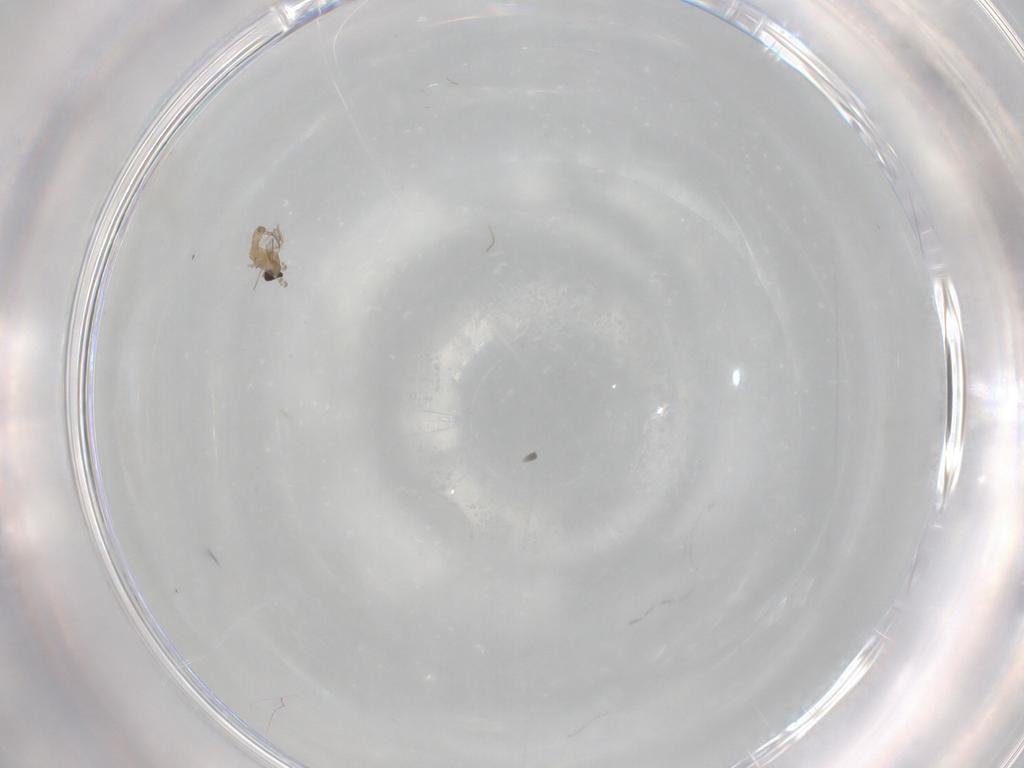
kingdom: Animalia
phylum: Arthropoda
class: Insecta
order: Diptera
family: Cecidomyiidae
